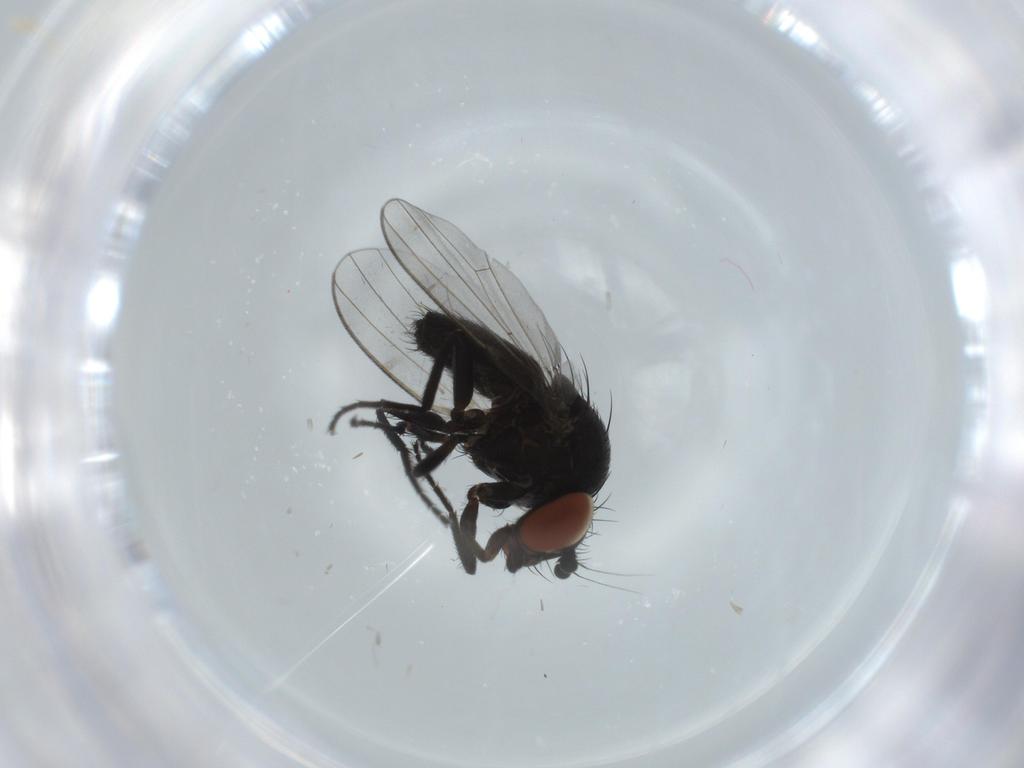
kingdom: Animalia
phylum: Arthropoda
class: Insecta
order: Diptera
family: Milichiidae
